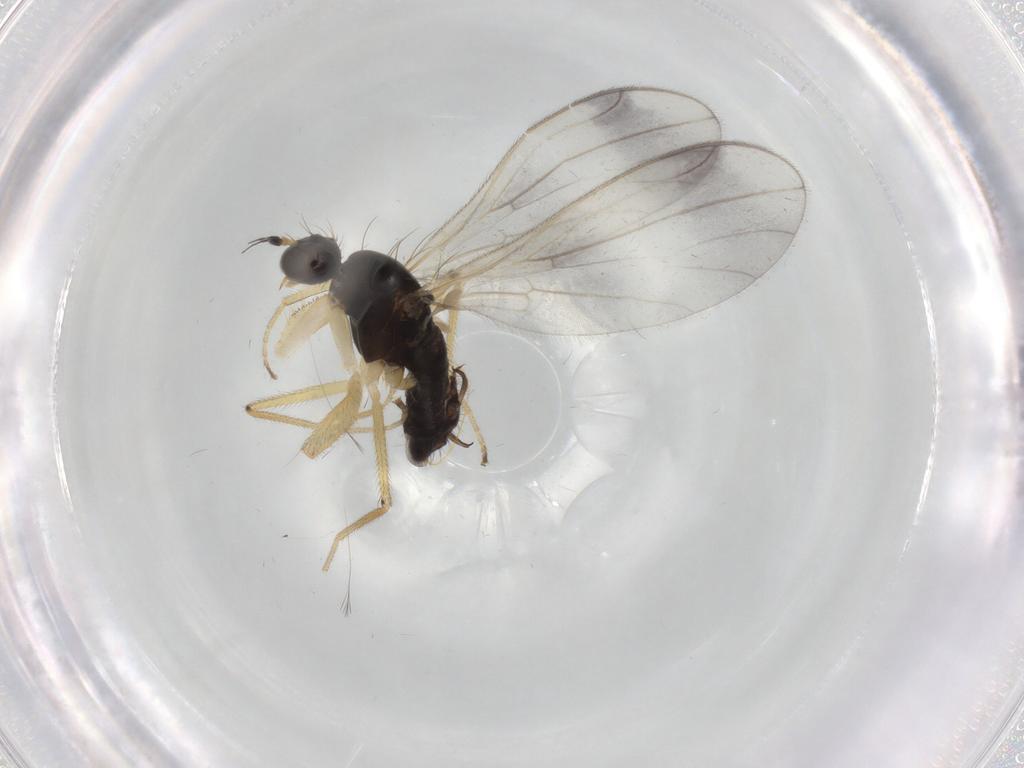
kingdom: Animalia
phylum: Arthropoda
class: Insecta
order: Diptera
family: Empididae
